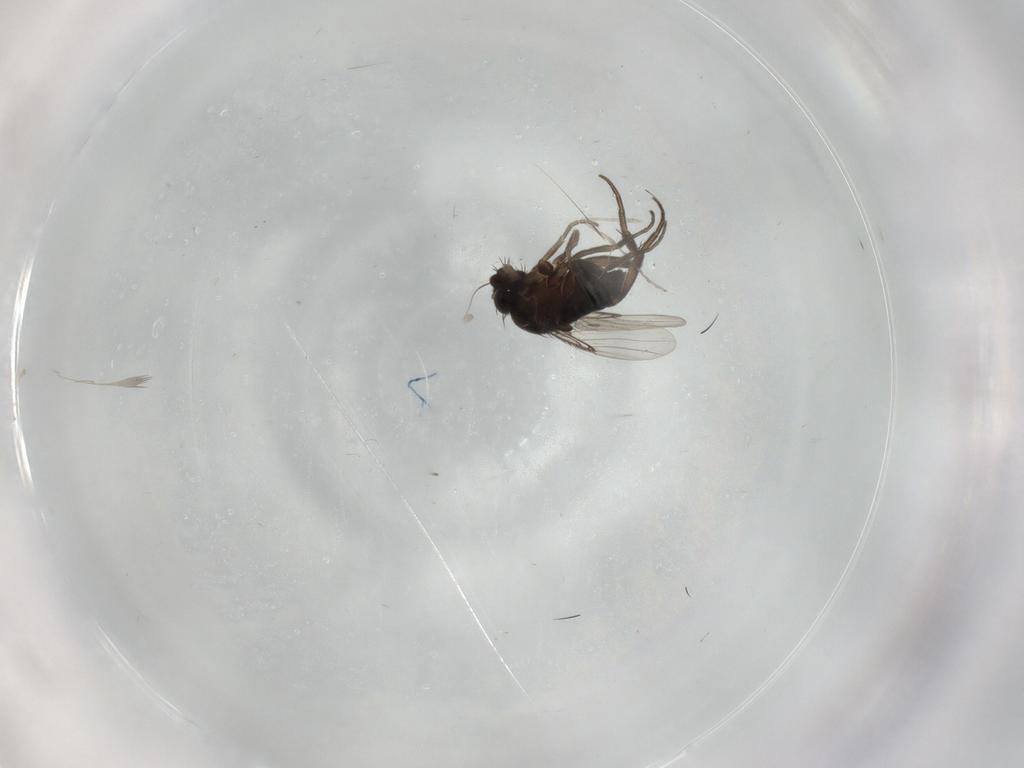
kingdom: Animalia
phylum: Arthropoda
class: Insecta
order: Diptera
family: Phoridae
